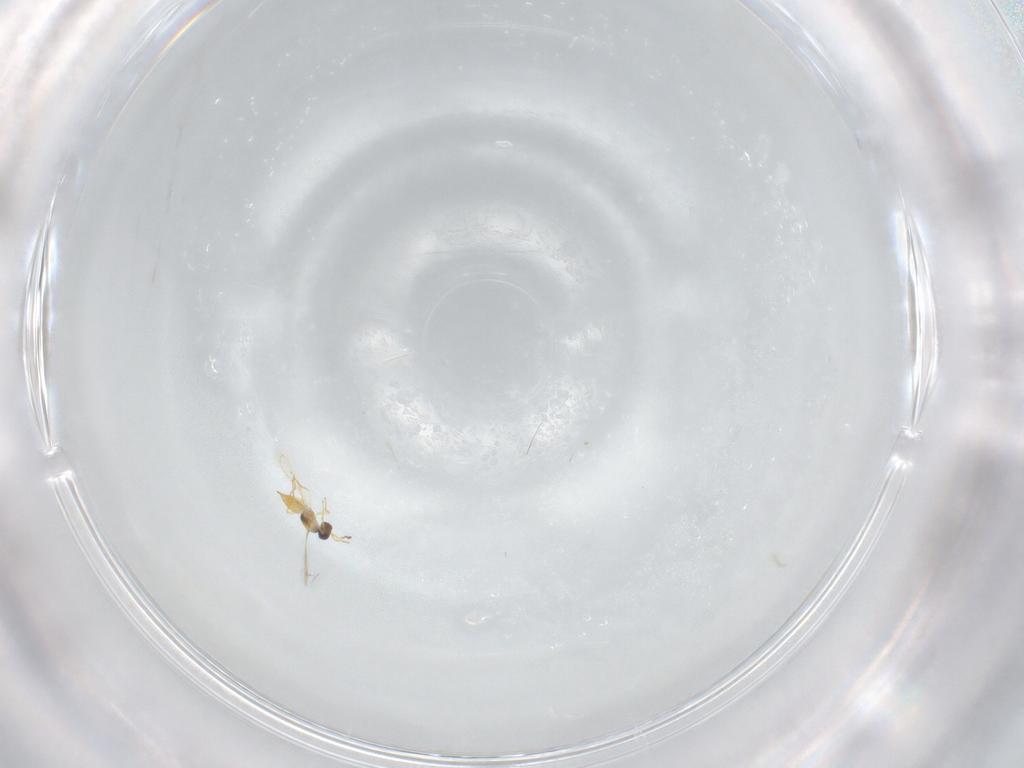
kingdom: Animalia
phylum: Arthropoda
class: Insecta
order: Hymenoptera
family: Mymaridae
